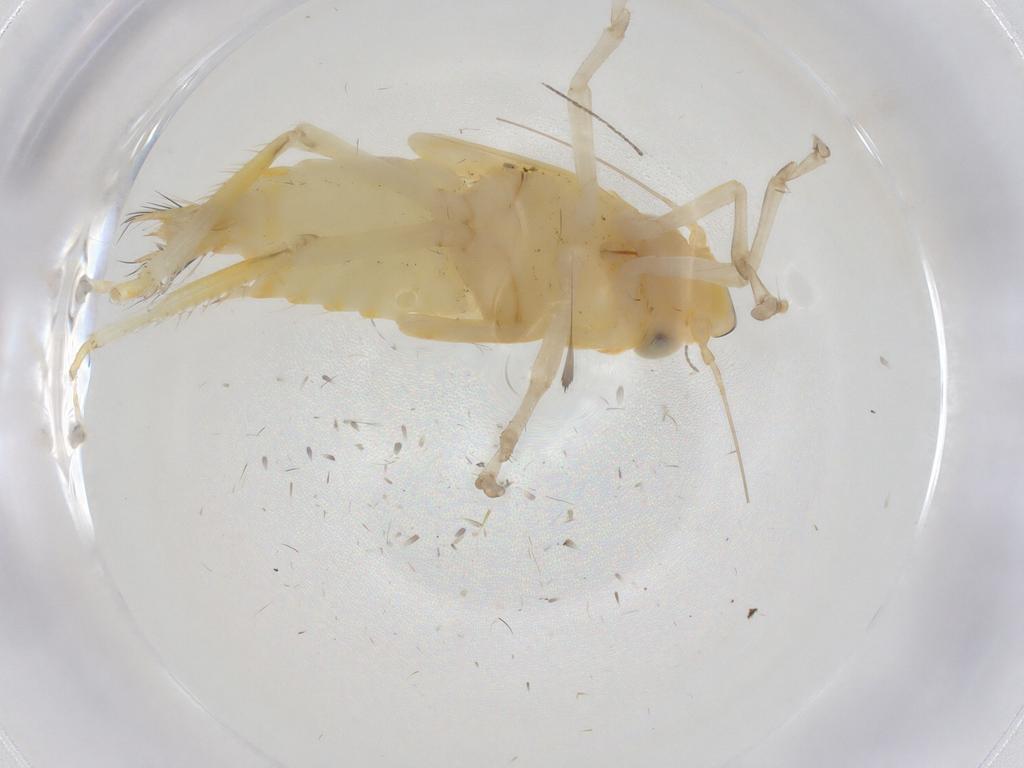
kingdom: Animalia
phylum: Arthropoda
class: Insecta
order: Hemiptera
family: Cicadellidae
